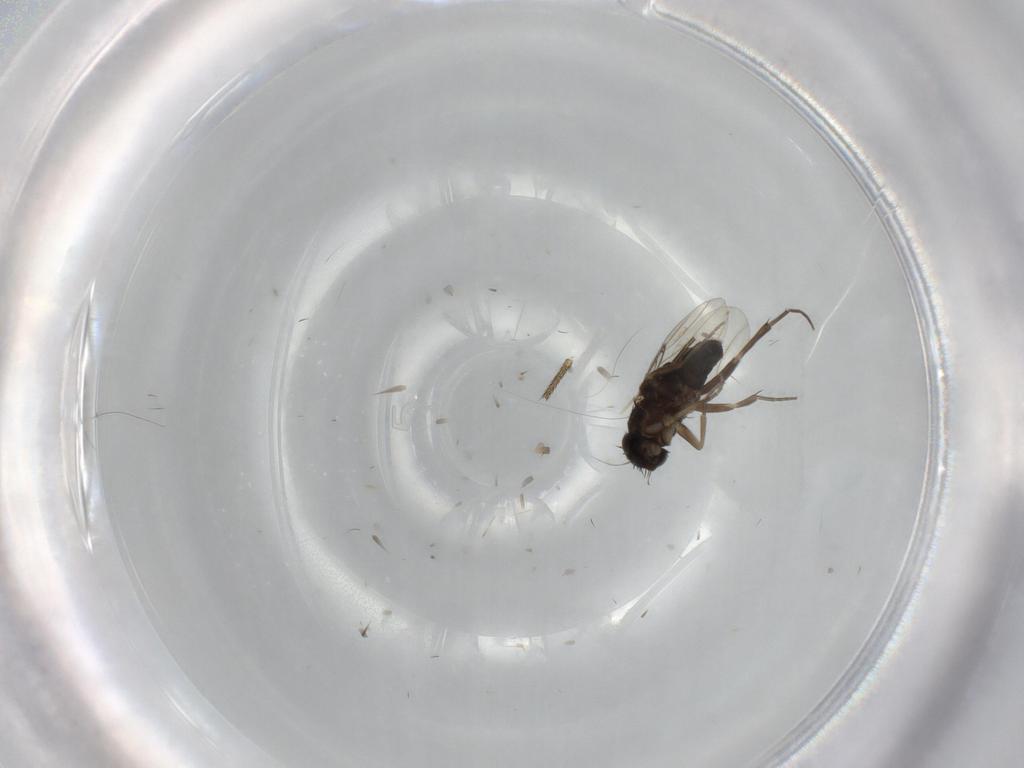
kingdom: Animalia
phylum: Arthropoda
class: Insecta
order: Diptera
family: Phoridae
